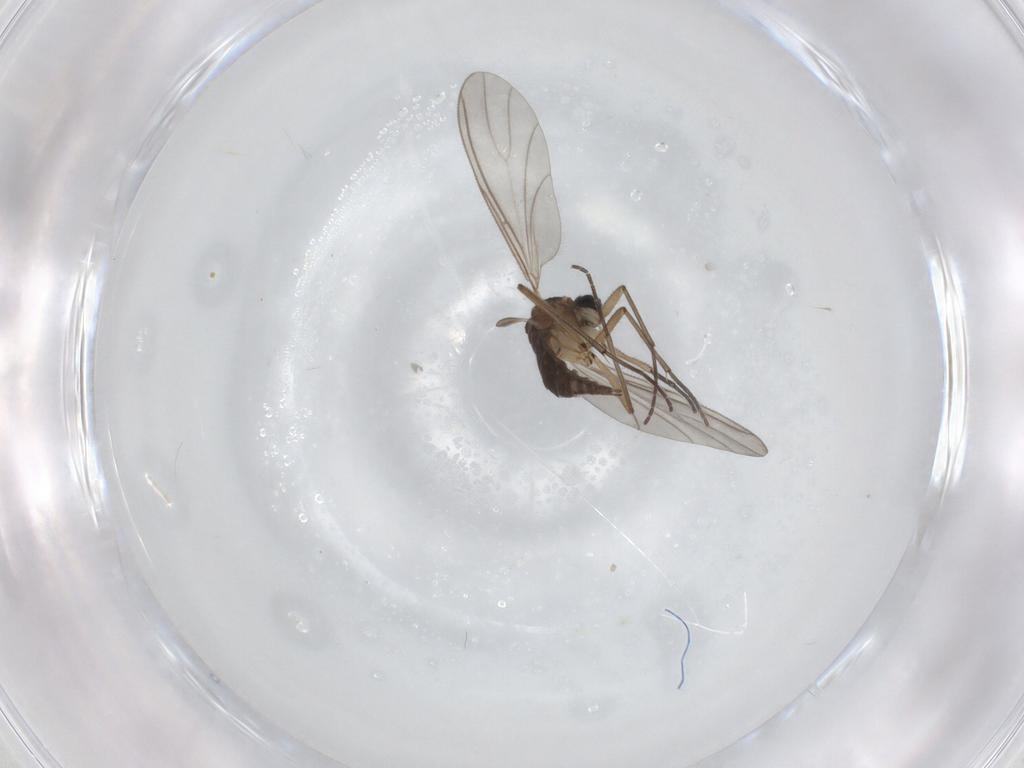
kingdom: Animalia
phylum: Arthropoda
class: Insecta
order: Diptera
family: Sciaridae
